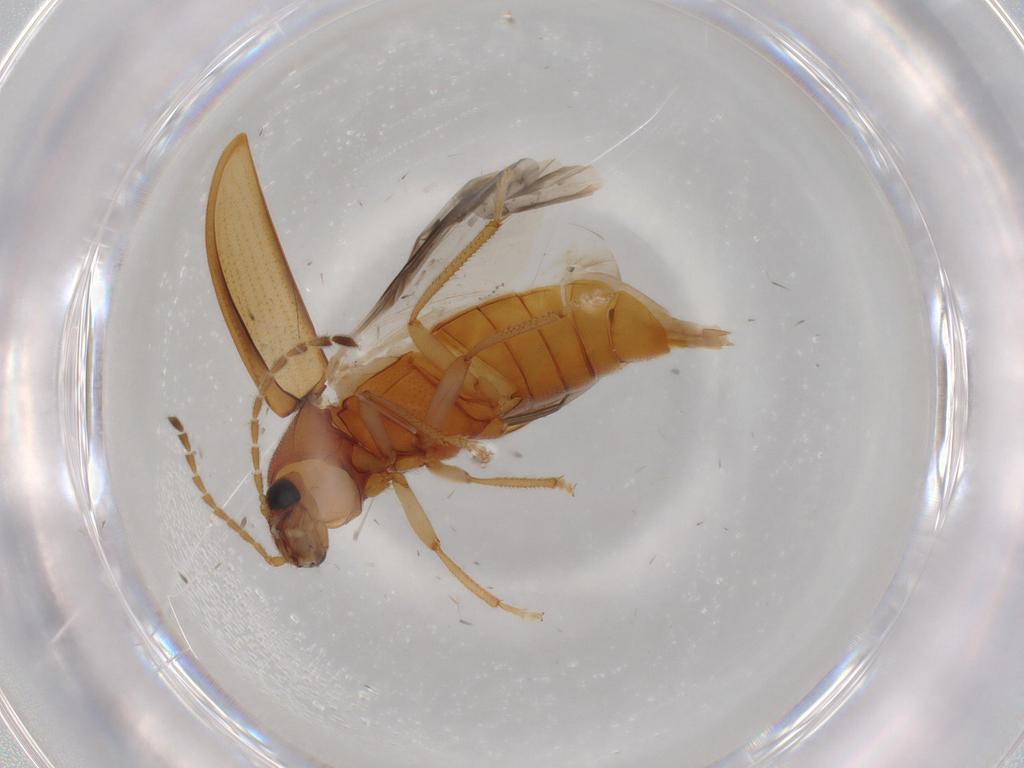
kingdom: Animalia
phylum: Arthropoda
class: Insecta
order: Coleoptera
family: Ptilodactylidae
